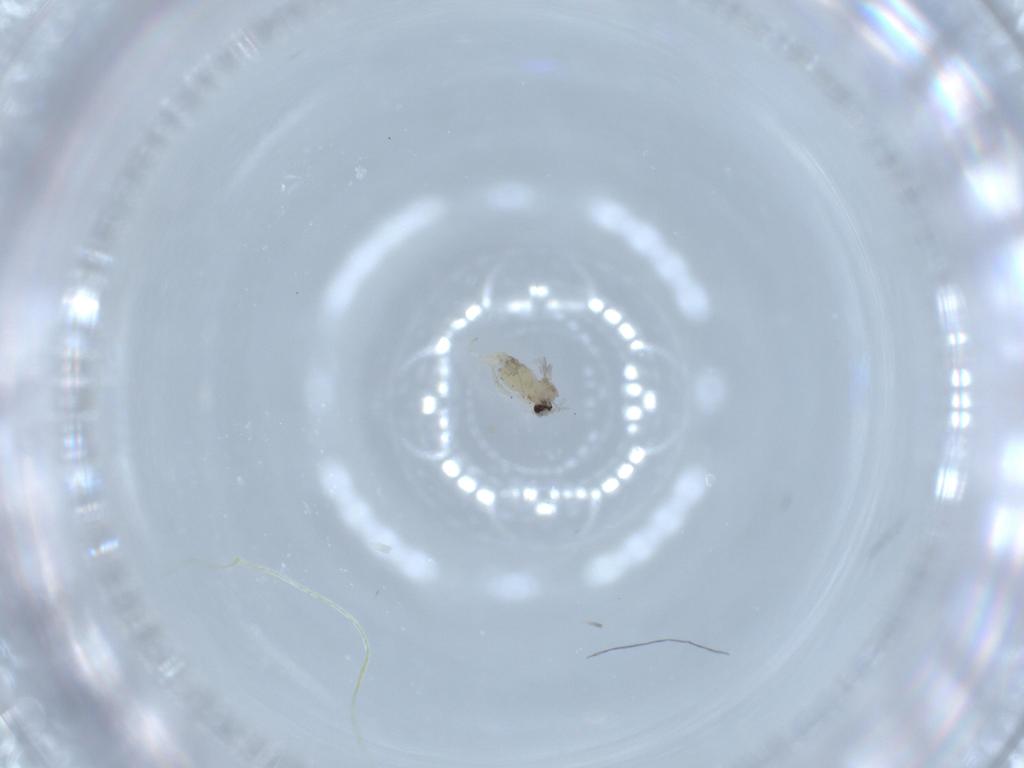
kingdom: Animalia
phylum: Arthropoda
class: Insecta
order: Diptera
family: Cecidomyiidae
